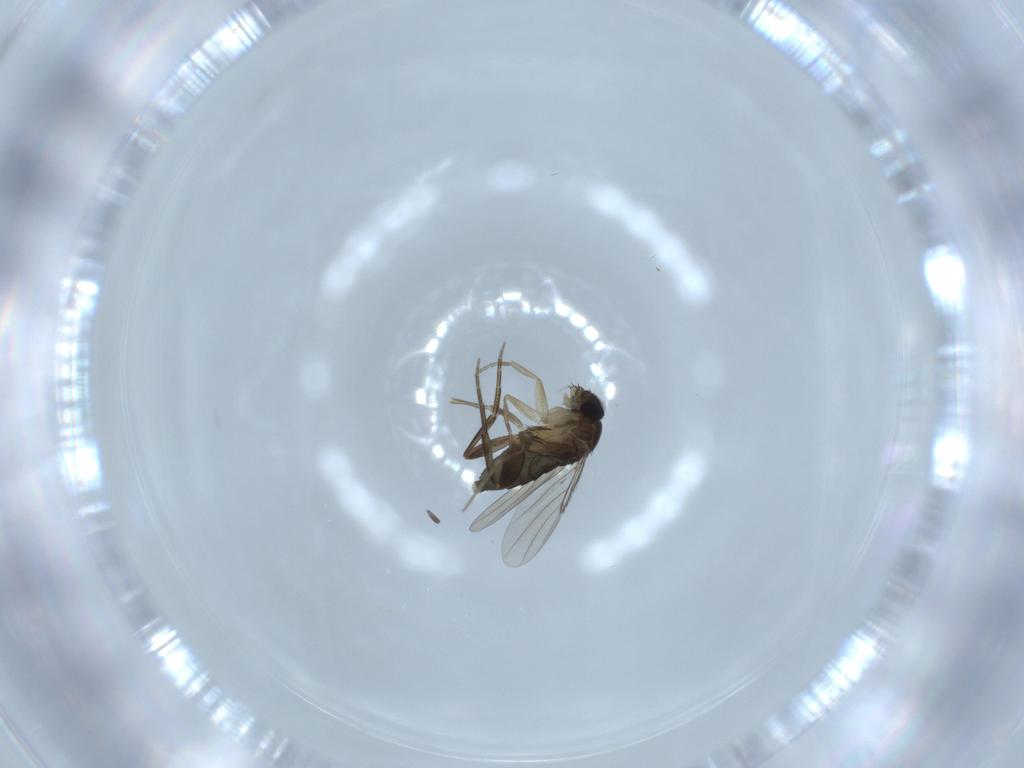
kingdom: Animalia
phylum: Arthropoda
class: Insecta
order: Diptera
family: Phoridae
